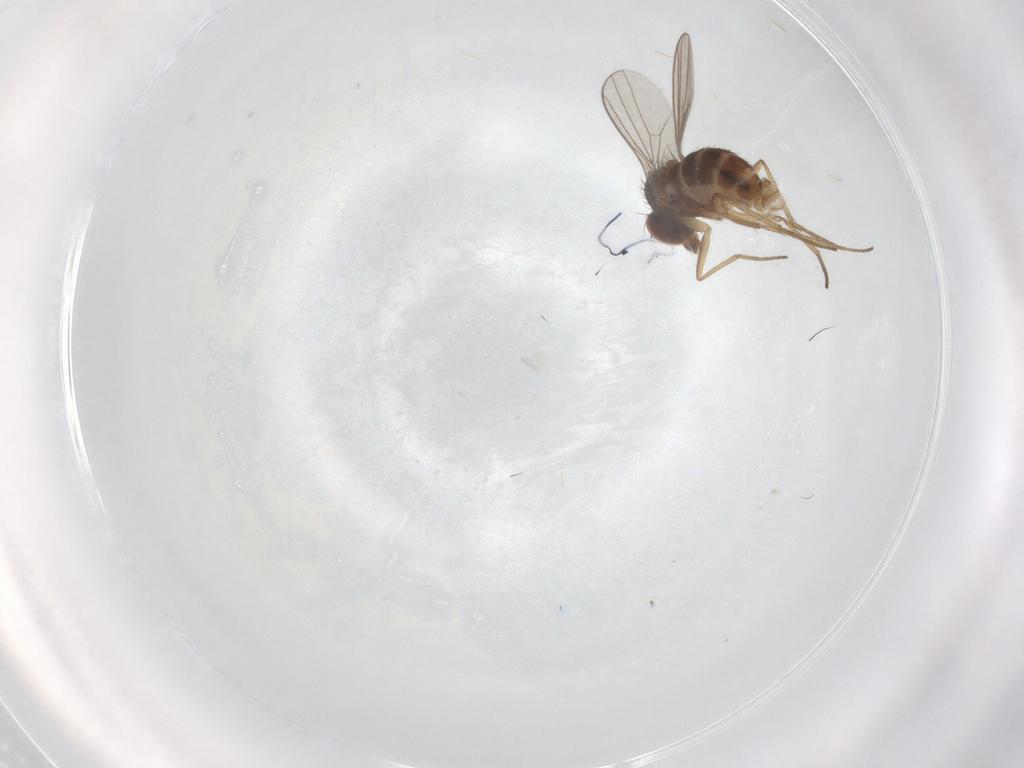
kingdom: Animalia
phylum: Arthropoda
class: Insecta
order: Diptera
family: Dolichopodidae
